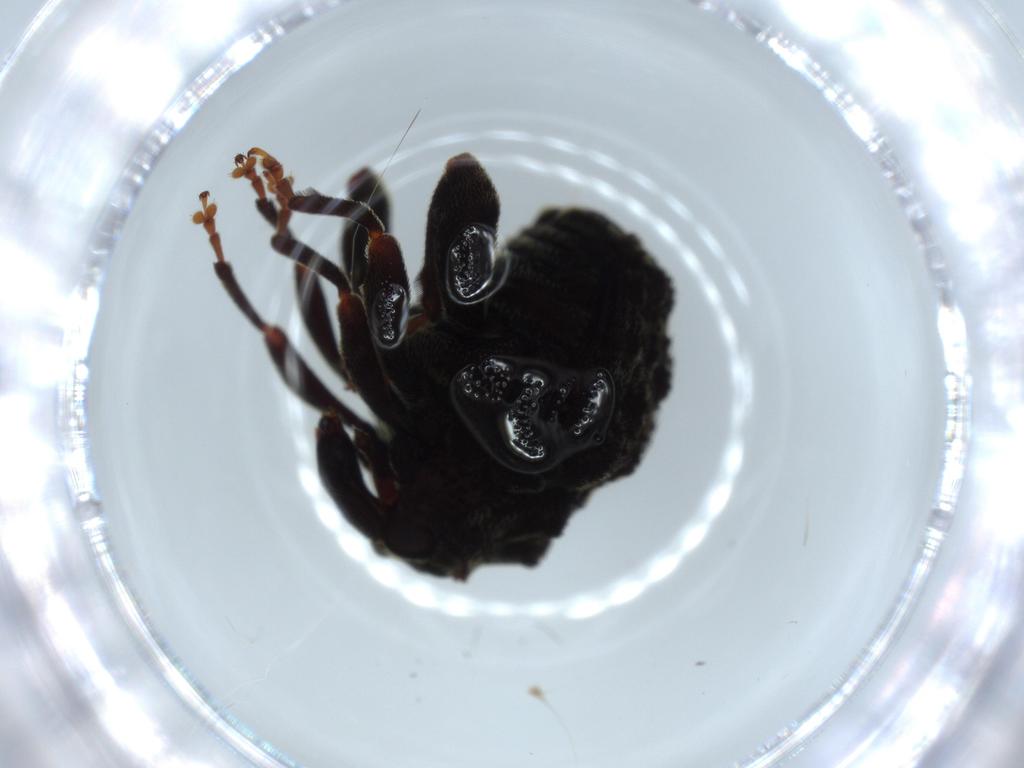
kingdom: Animalia
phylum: Arthropoda
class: Insecta
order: Coleoptera
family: Curculionidae
